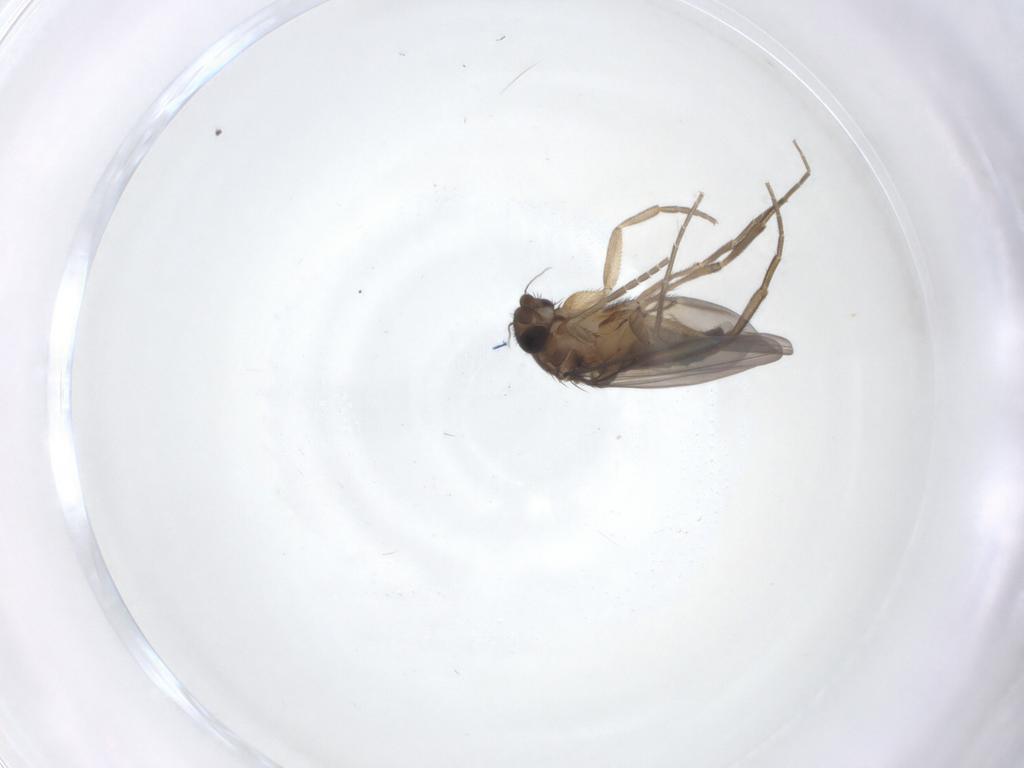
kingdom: Animalia
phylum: Arthropoda
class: Insecta
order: Diptera
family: Phoridae
